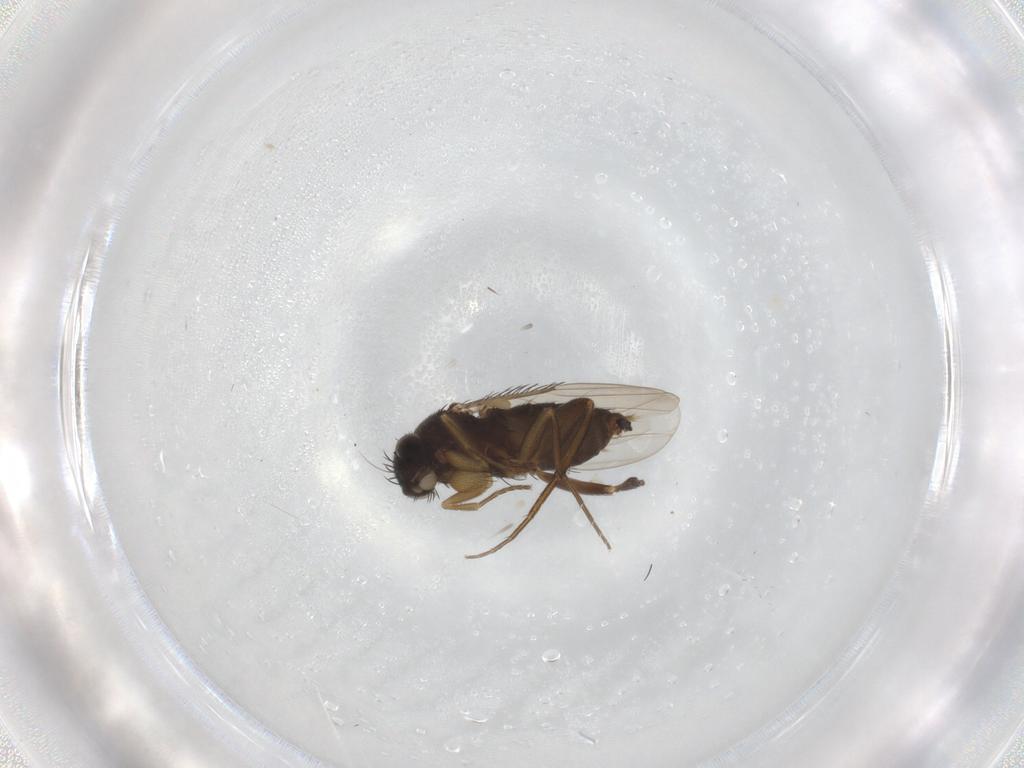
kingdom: Animalia
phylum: Arthropoda
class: Insecta
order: Diptera
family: Phoridae
